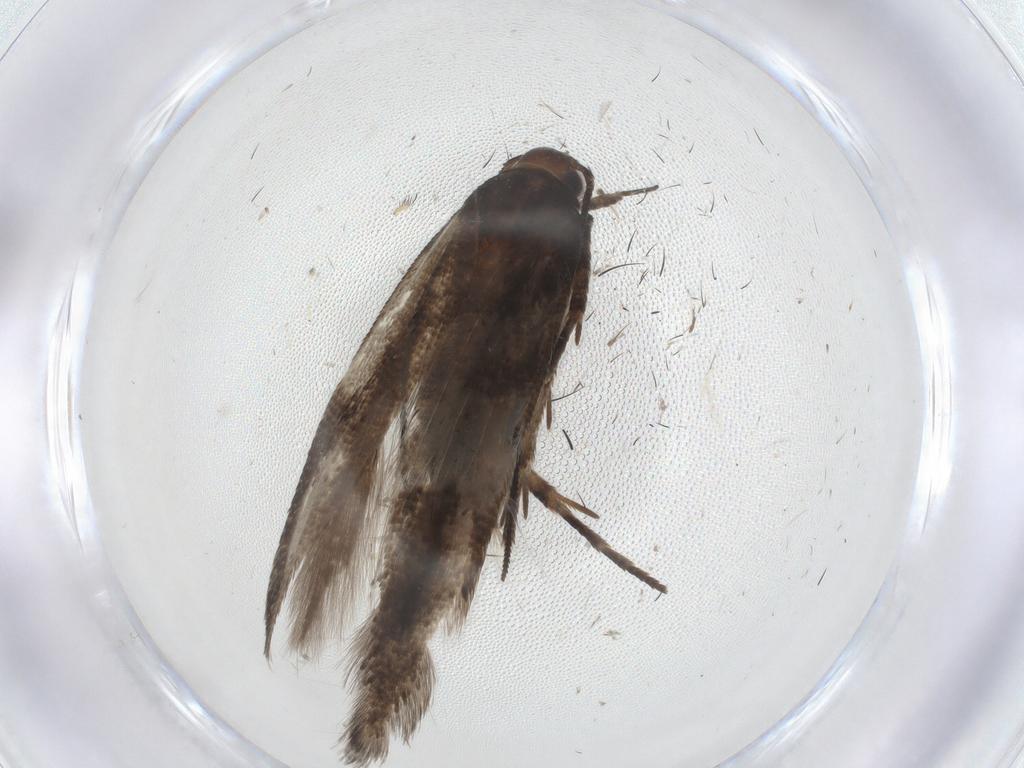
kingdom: Animalia
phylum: Arthropoda
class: Insecta
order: Lepidoptera
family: Gelechiidae
